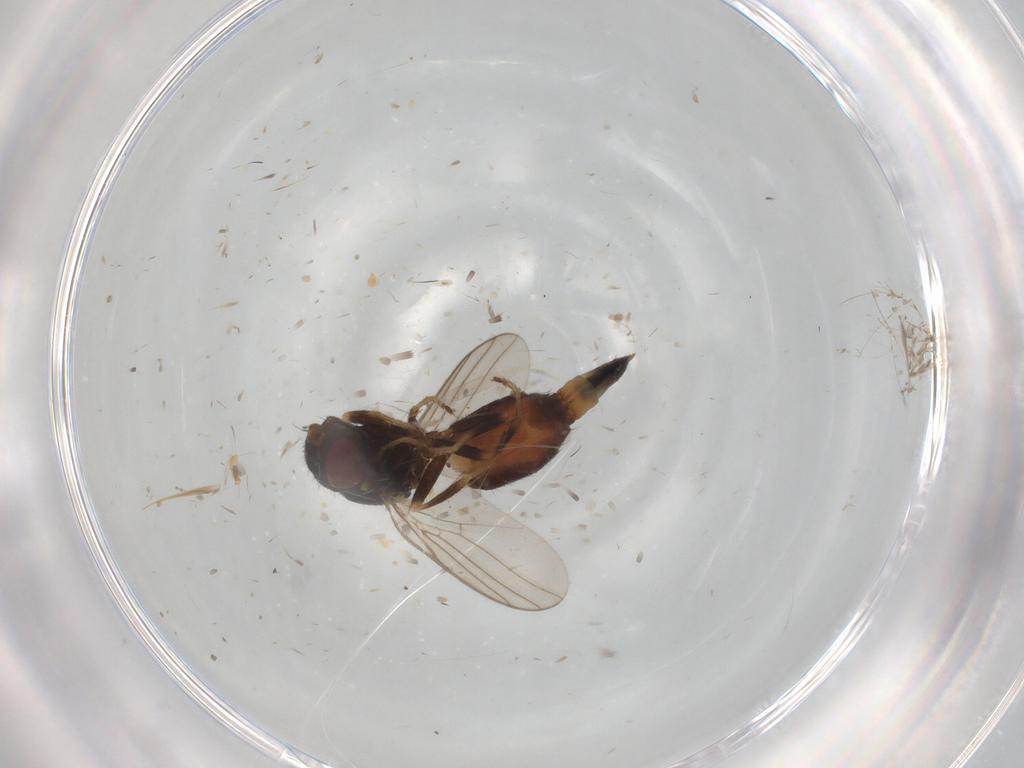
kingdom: Animalia
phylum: Arthropoda
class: Insecta
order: Diptera
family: Chloropidae
